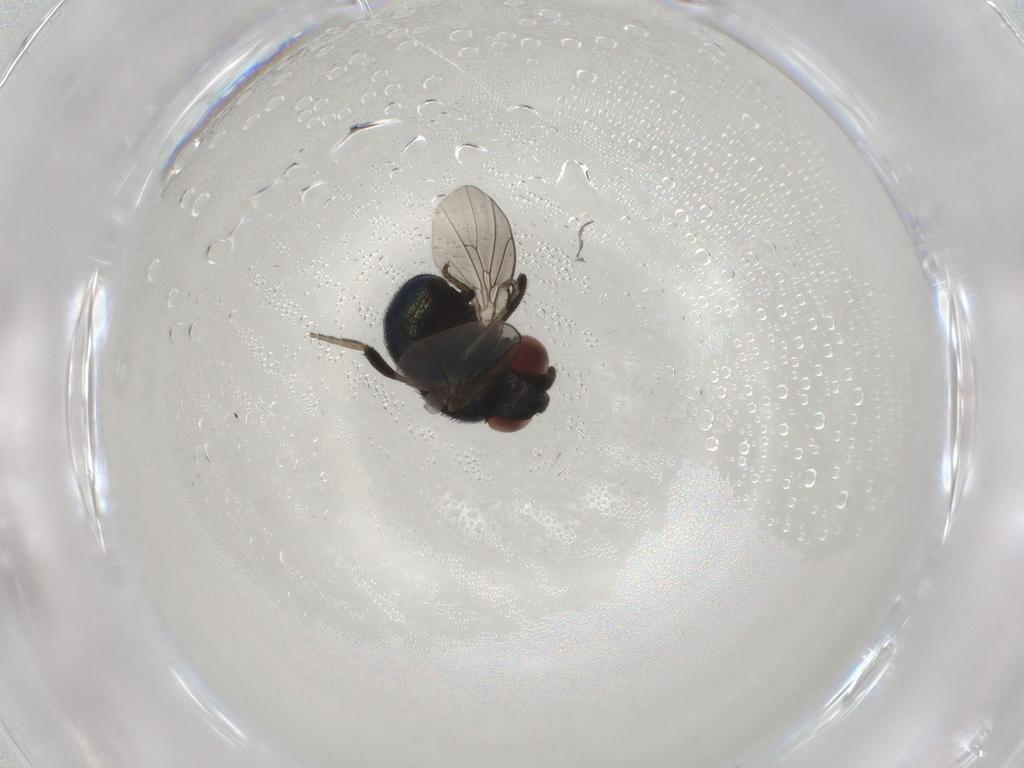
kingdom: Animalia
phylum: Arthropoda
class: Insecta
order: Diptera
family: Cryptochetidae
